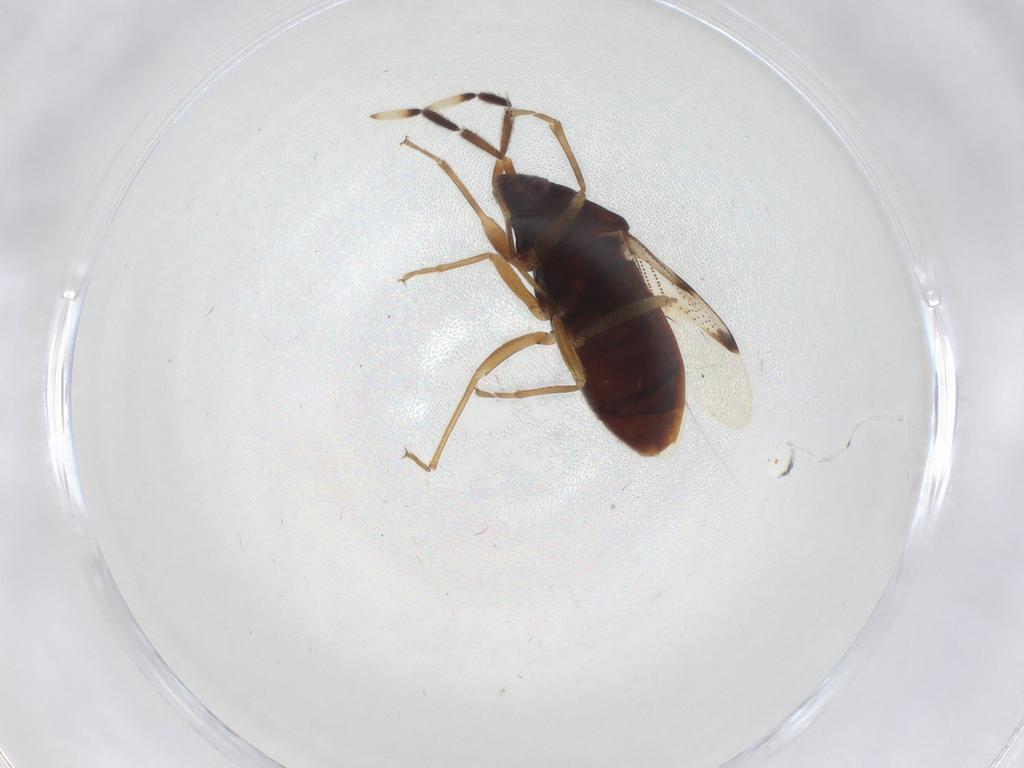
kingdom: Animalia
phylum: Arthropoda
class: Insecta
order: Hemiptera
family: Rhyparochromidae
